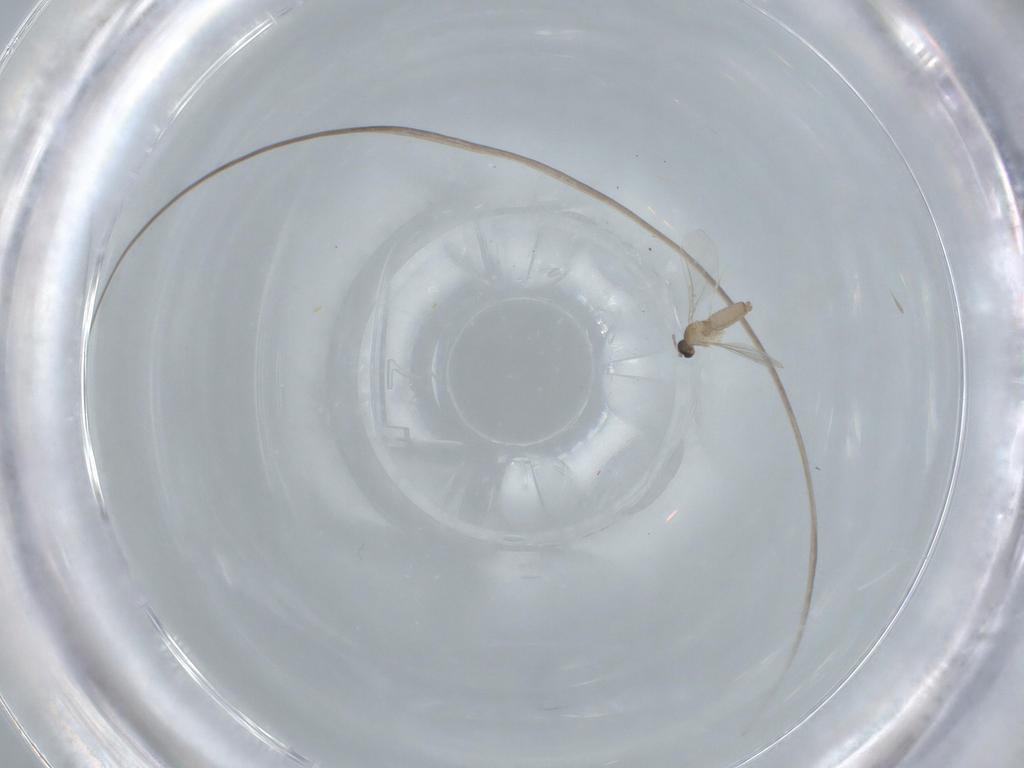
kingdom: Animalia
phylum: Arthropoda
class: Insecta
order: Diptera
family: Cecidomyiidae
